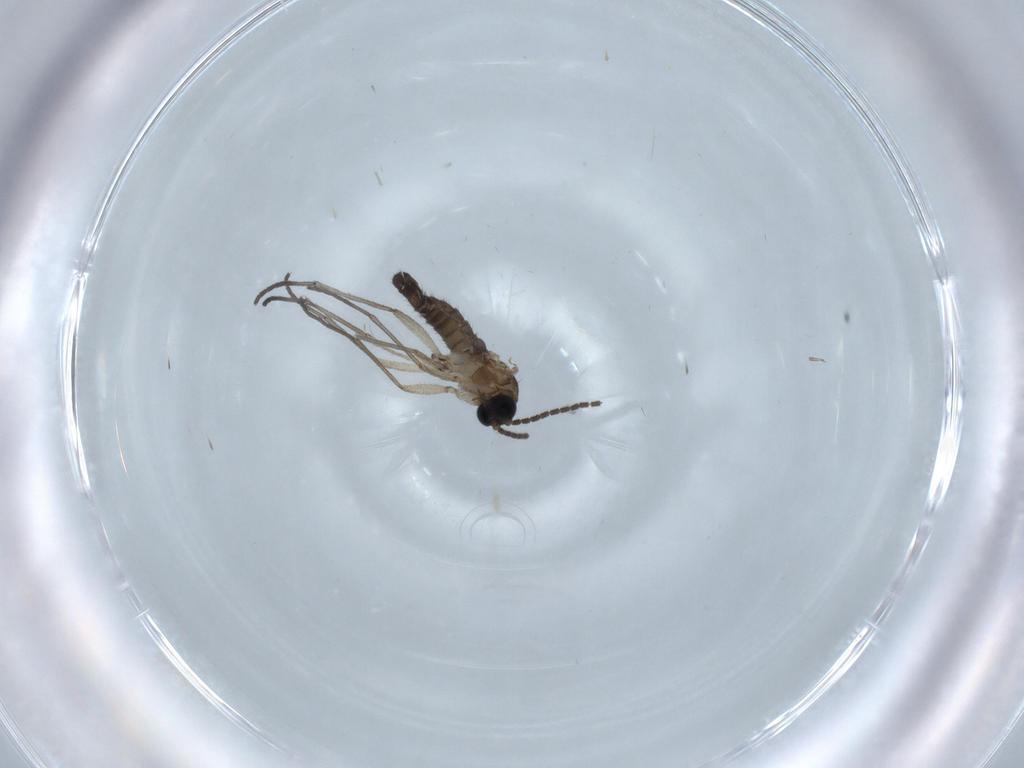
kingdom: Animalia
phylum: Arthropoda
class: Insecta
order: Diptera
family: Sciaridae
